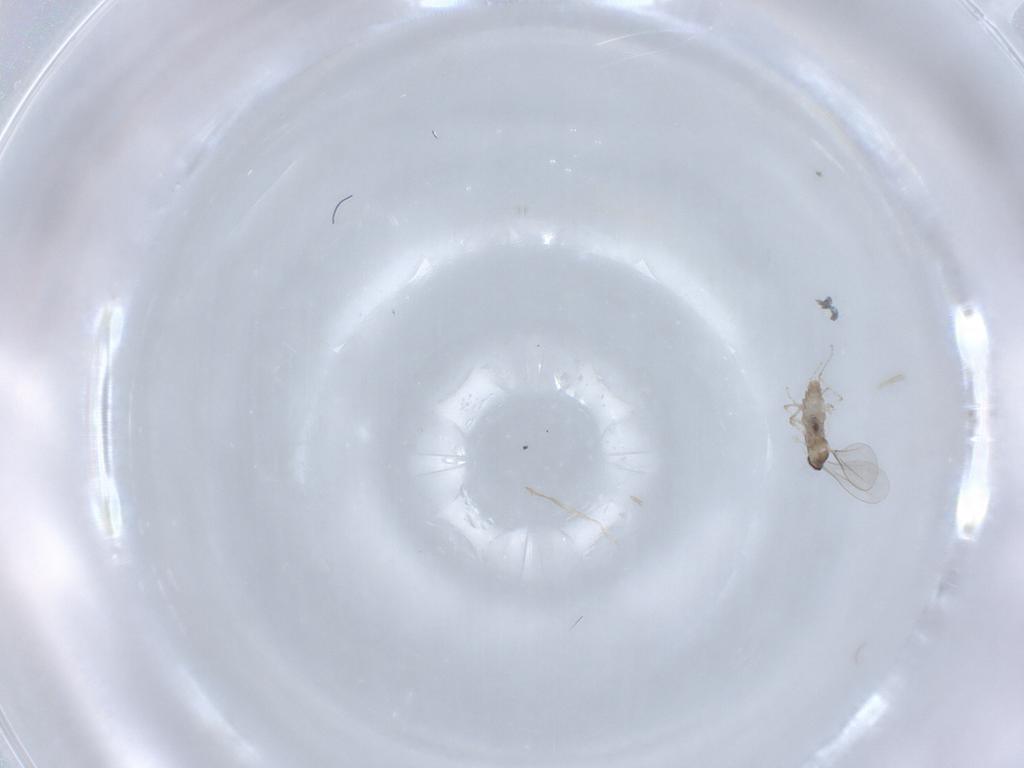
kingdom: Animalia
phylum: Arthropoda
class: Insecta
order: Diptera
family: Cecidomyiidae
